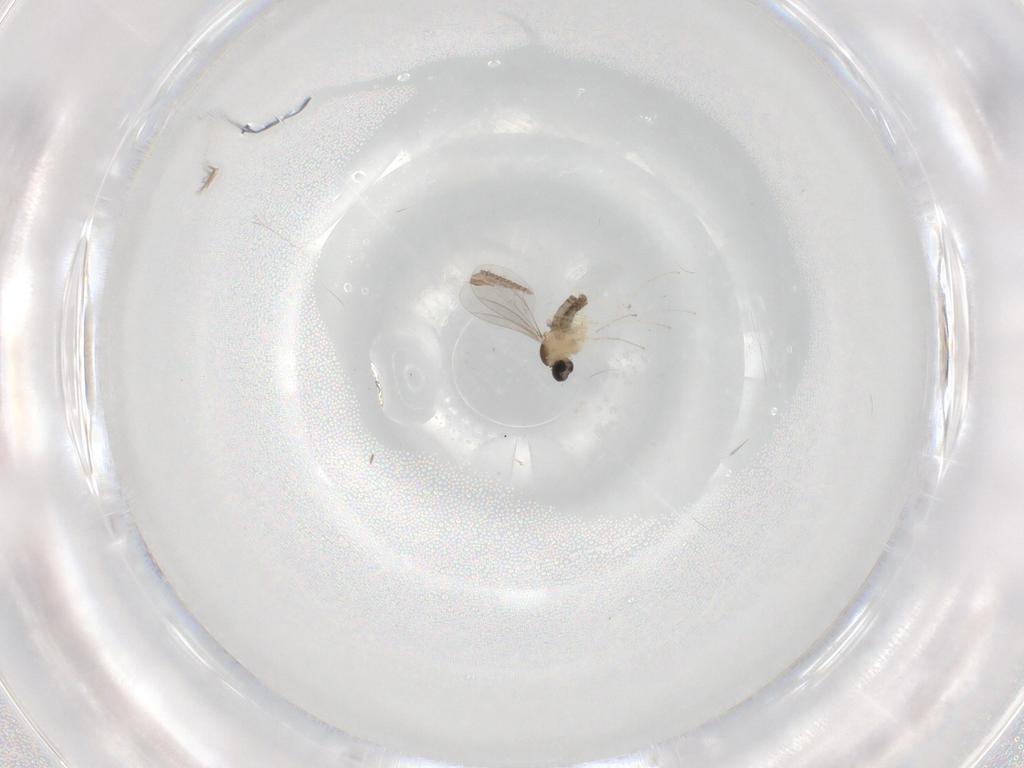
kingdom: Animalia
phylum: Arthropoda
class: Insecta
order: Diptera
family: Cecidomyiidae
